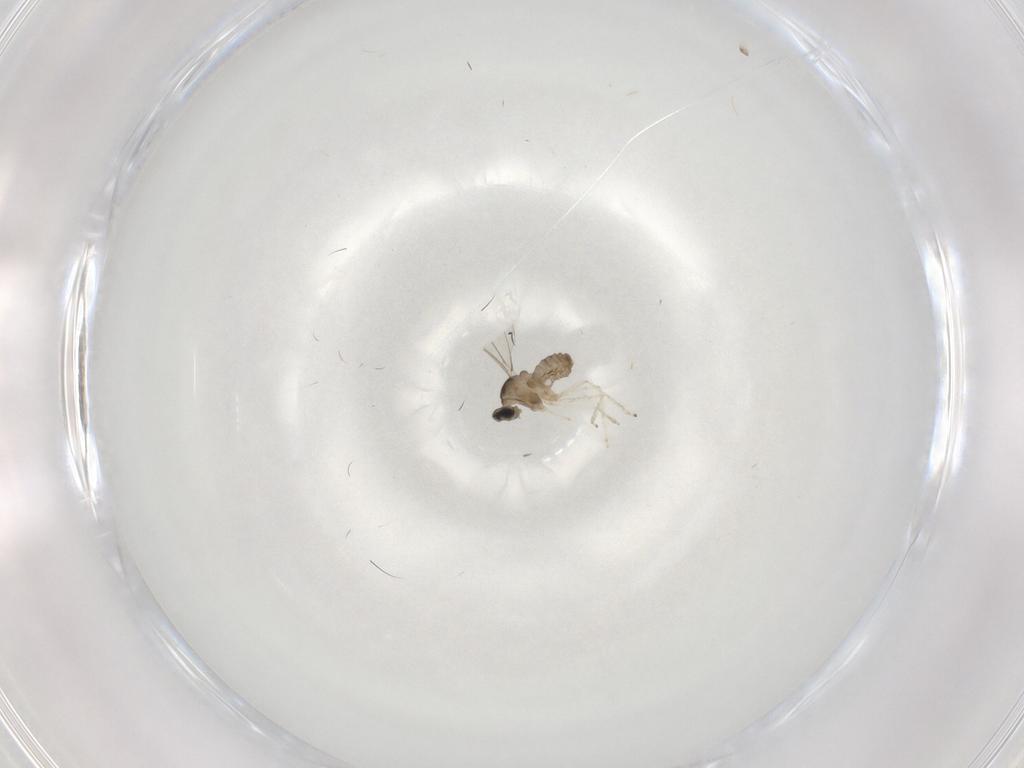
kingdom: Animalia
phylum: Arthropoda
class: Insecta
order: Diptera
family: Cecidomyiidae
